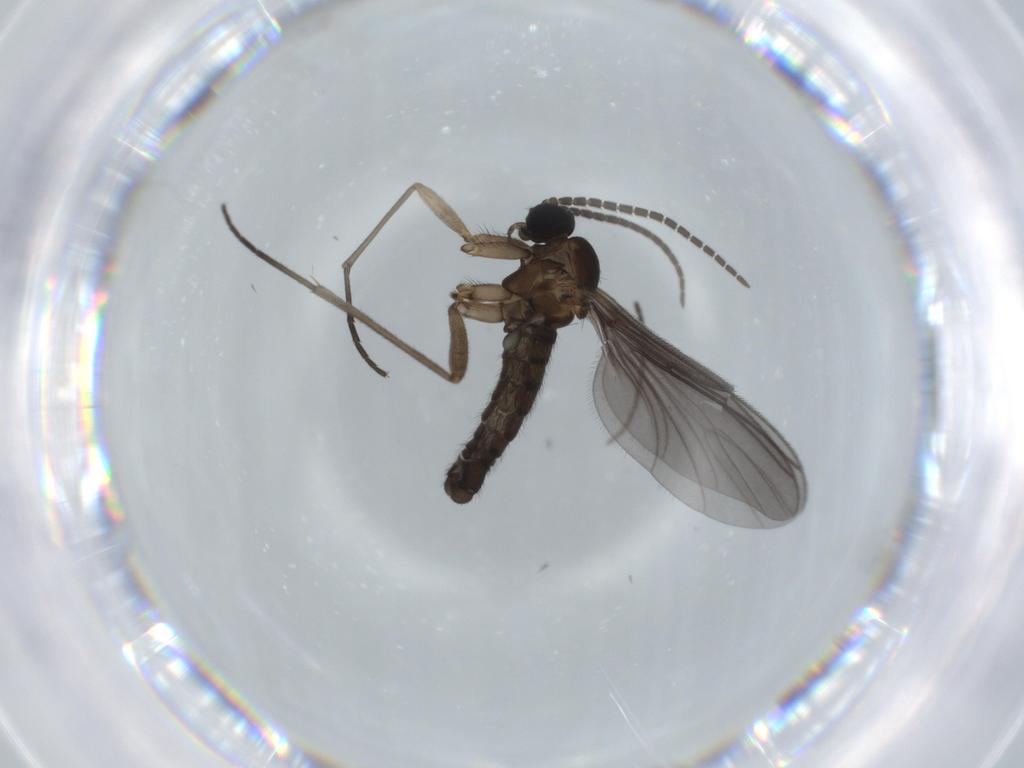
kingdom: Animalia
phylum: Arthropoda
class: Insecta
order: Diptera
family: Sciaridae
